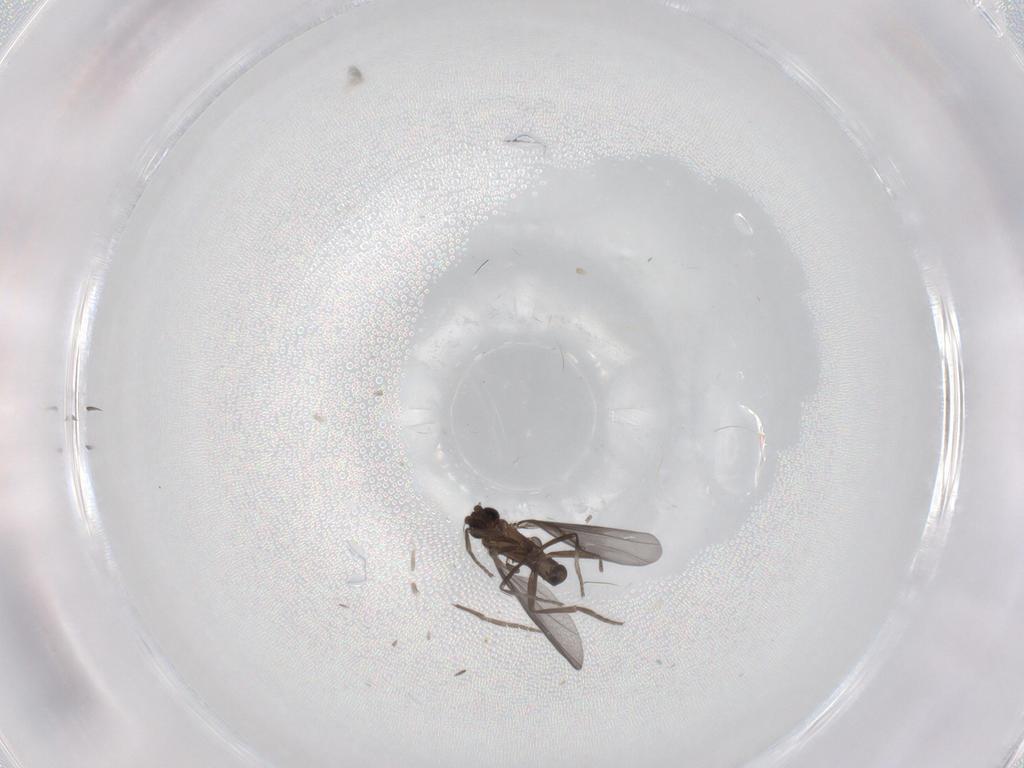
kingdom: Animalia
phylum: Arthropoda
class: Insecta
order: Diptera
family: Phoridae
